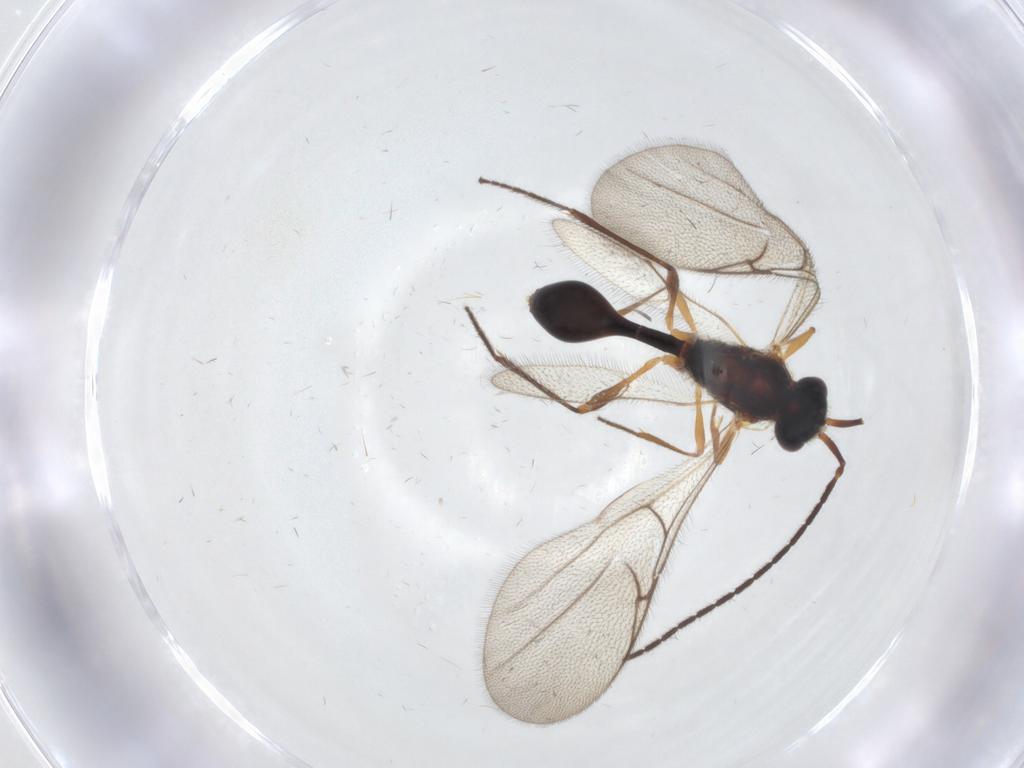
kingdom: Animalia
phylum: Arthropoda
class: Insecta
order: Hymenoptera
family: Diapriidae
